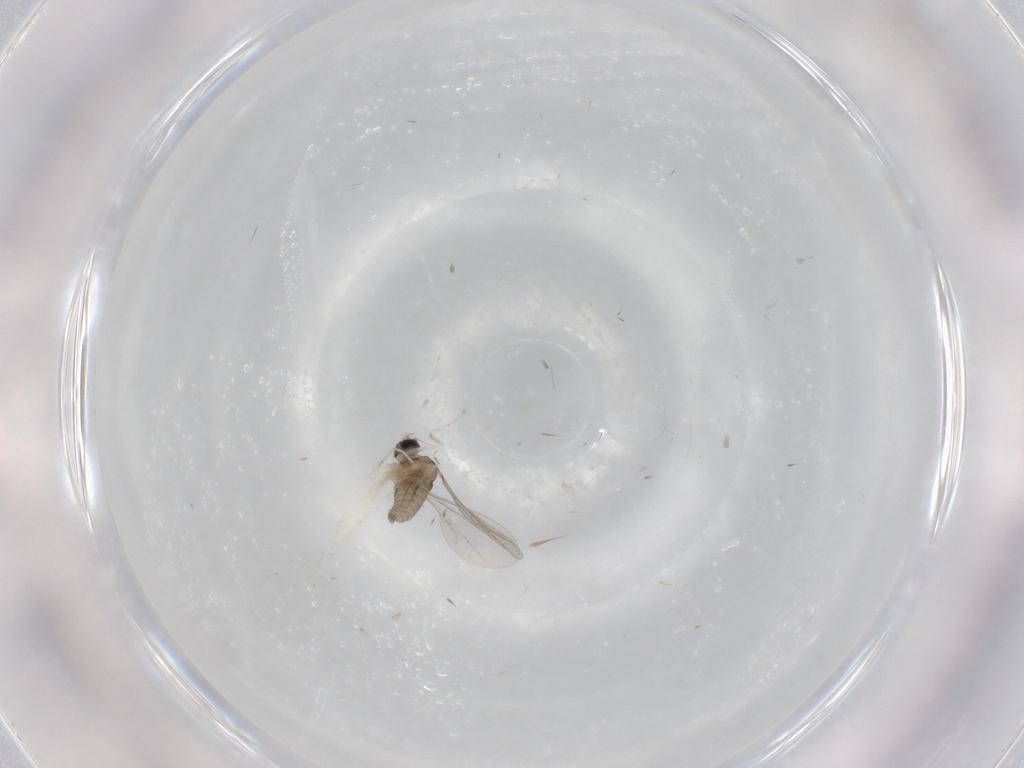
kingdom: Animalia
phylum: Arthropoda
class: Insecta
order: Diptera
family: Cecidomyiidae
